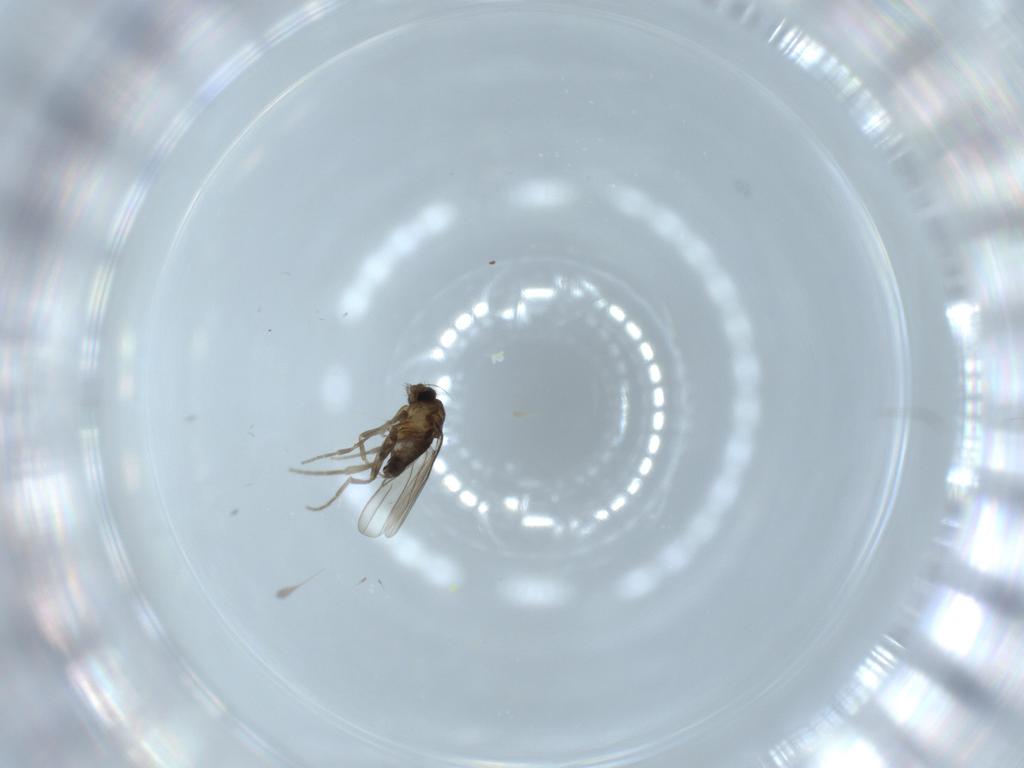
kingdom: Animalia
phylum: Arthropoda
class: Insecta
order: Diptera
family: Phoridae
